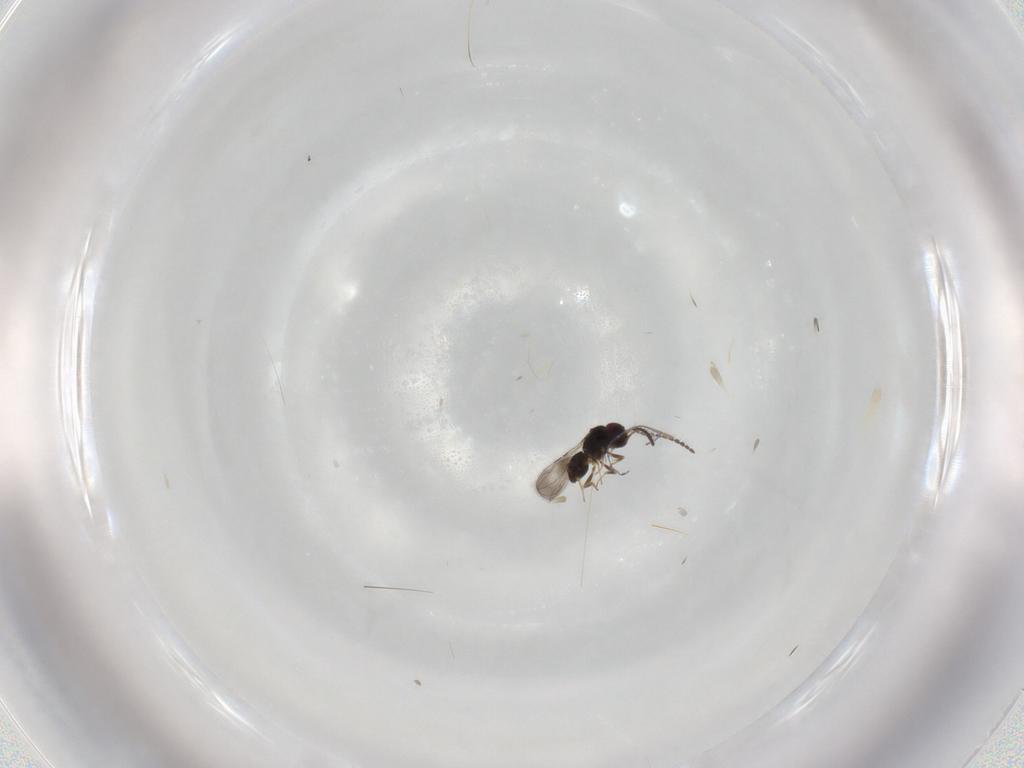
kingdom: Animalia
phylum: Arthropoda
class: Insecta
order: Hymenoptera
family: Ceraphronidae
